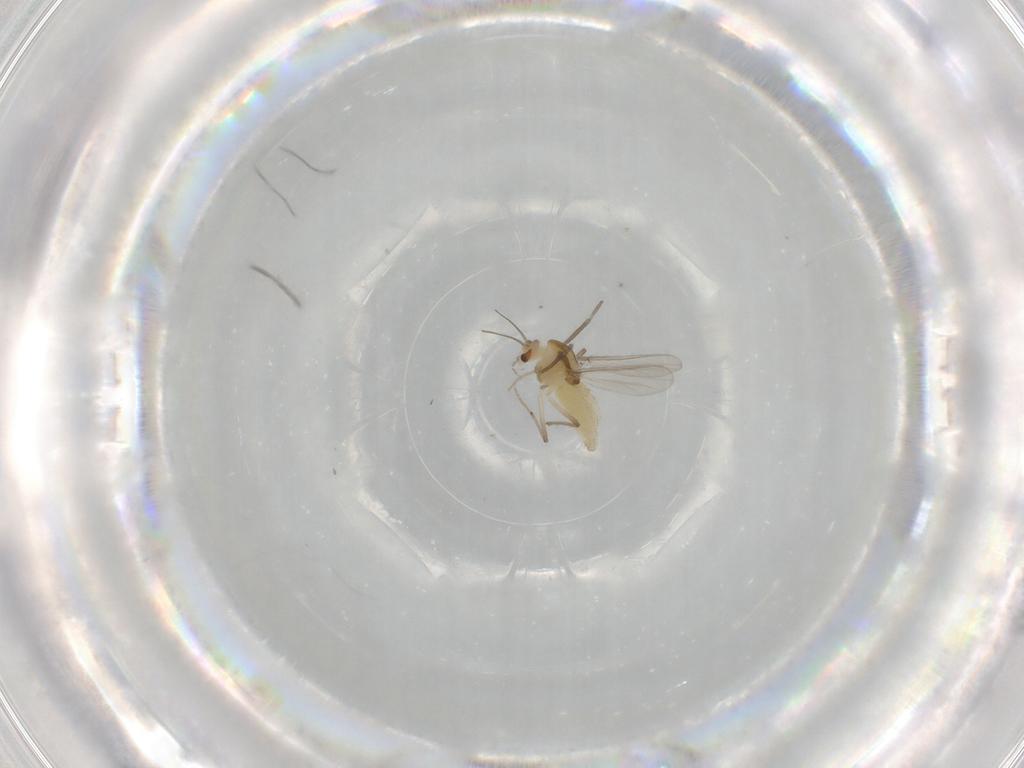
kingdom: Animalia
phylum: Arthropoda
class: Insecta
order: Diptera
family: Chironomidae
